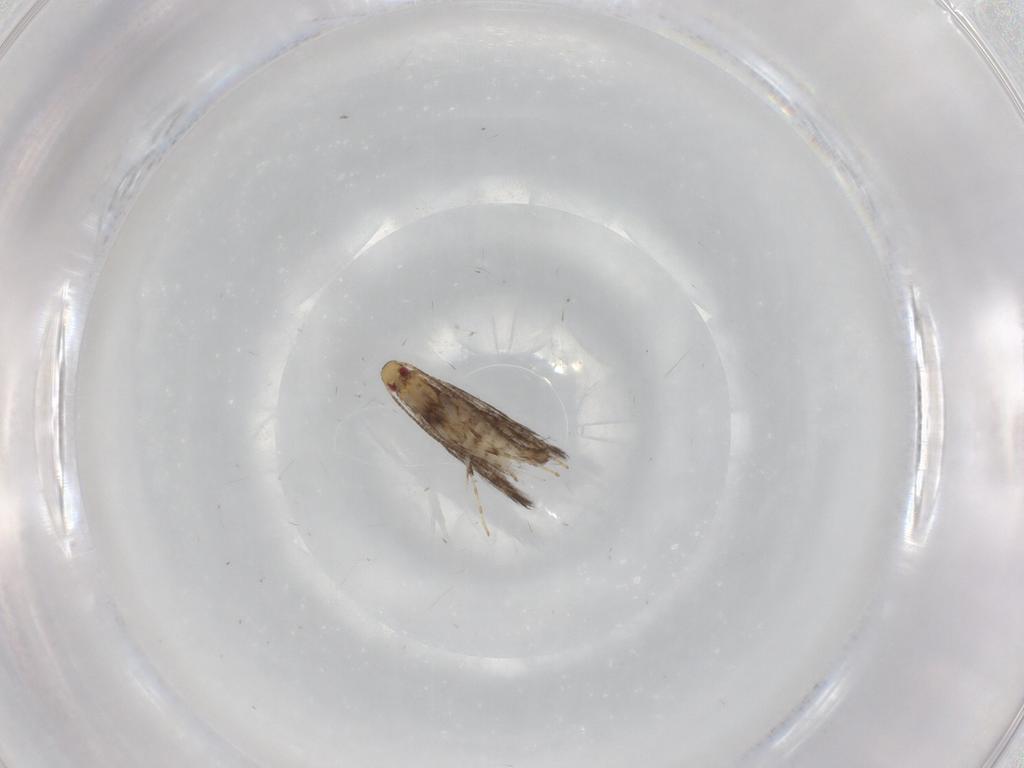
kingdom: Animalia
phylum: Arthropoda
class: Insecta
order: Lepidoptera
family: Gracillariidae
